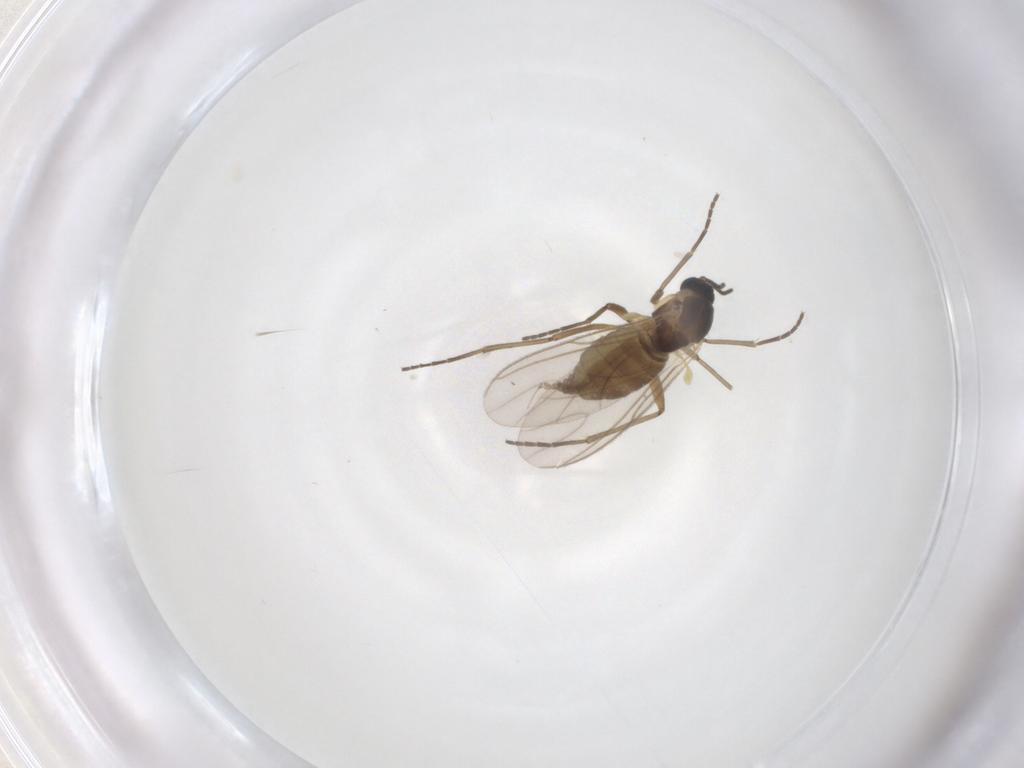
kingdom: Animalia
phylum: Arthropoda
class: Insecta
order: Diptera
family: Cecidomyiidae
